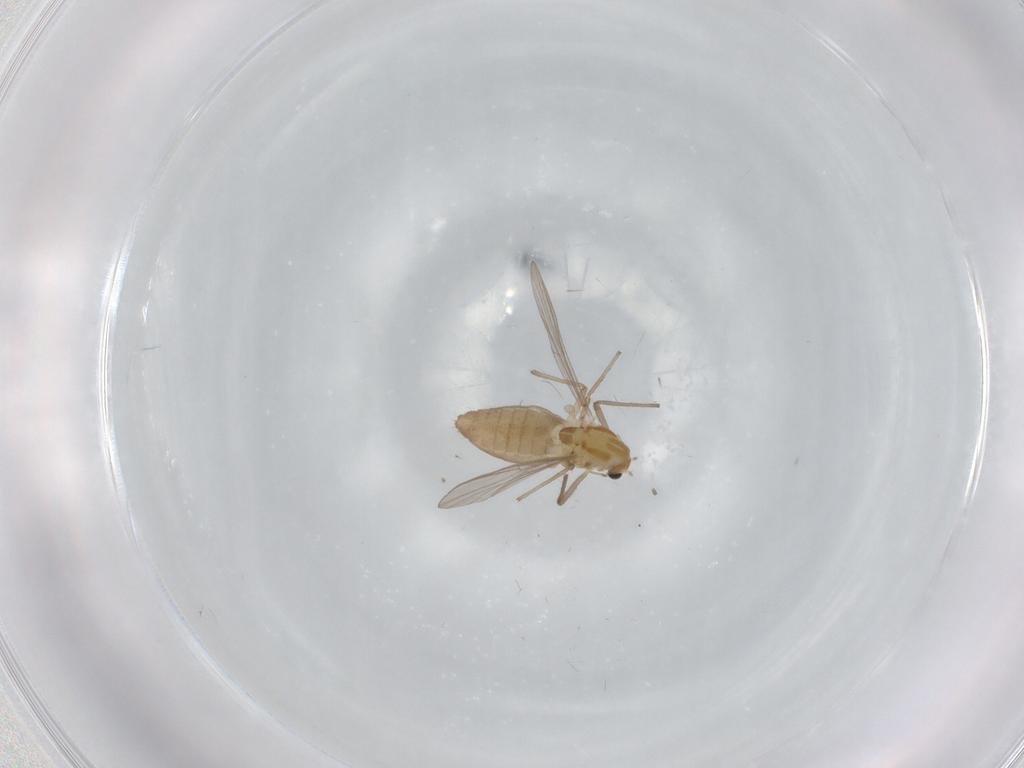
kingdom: Animalia
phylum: Arthropoda
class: Insecta
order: Diptera
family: Chironomidae
